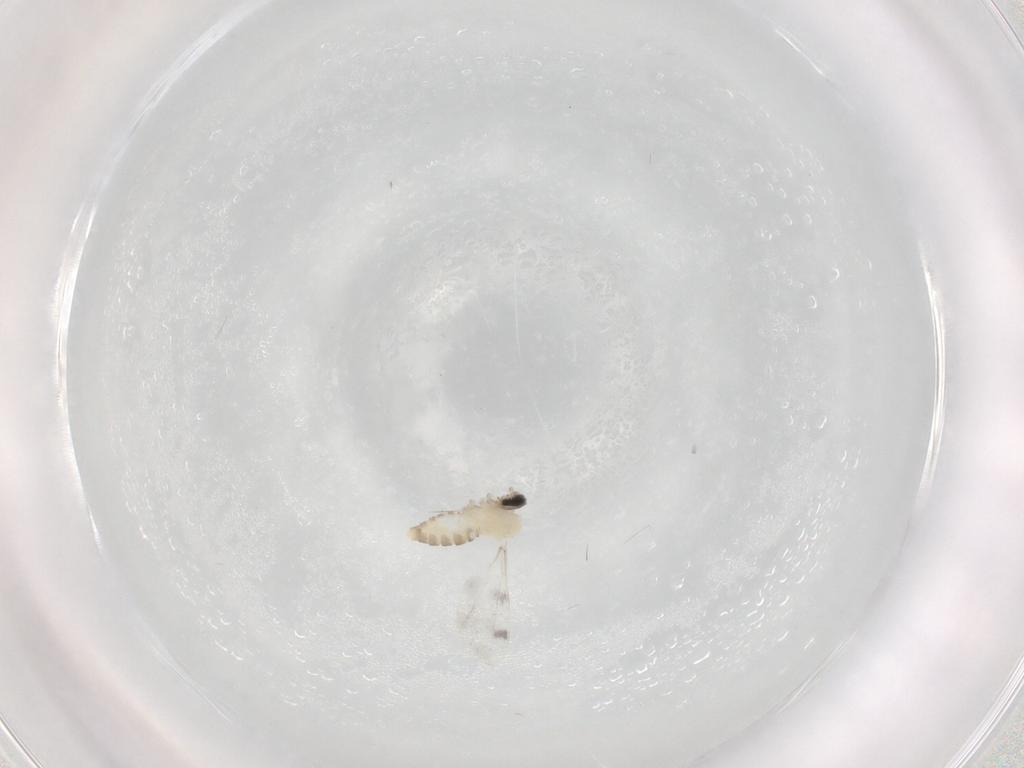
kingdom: Animalia
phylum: Arthropoda
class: Insecta
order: Diptera
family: Cecidomyiidae
